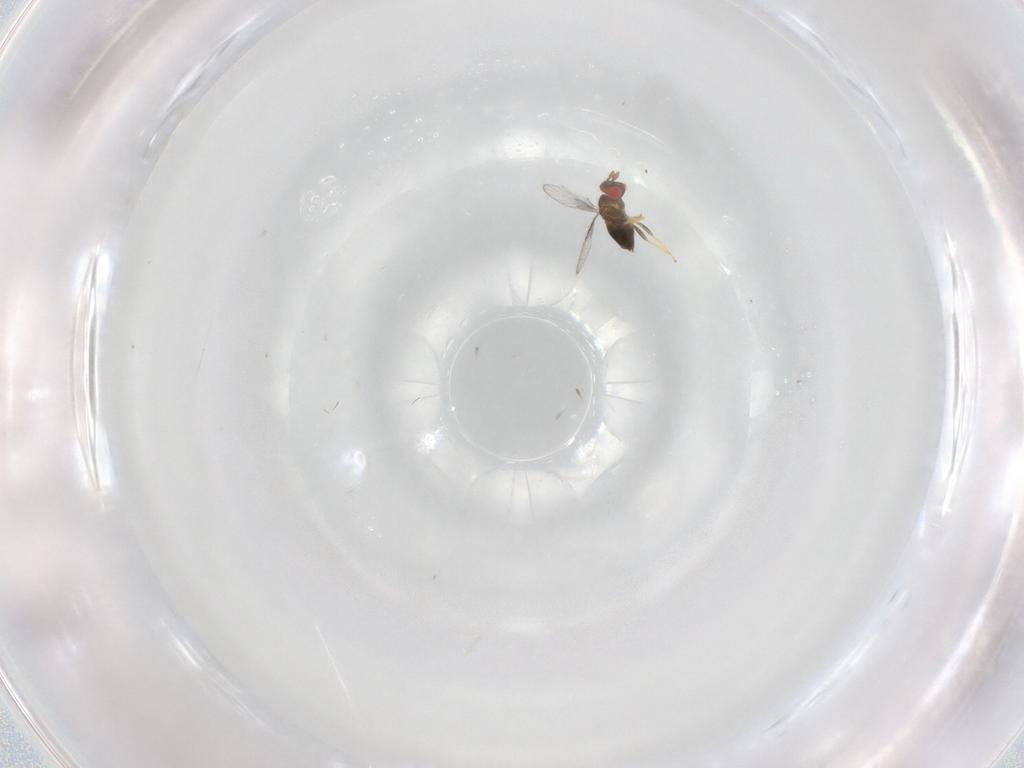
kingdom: Animalia
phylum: Arthropoda
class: Insecta
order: Hymenoptera
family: Trichogrammatidae
